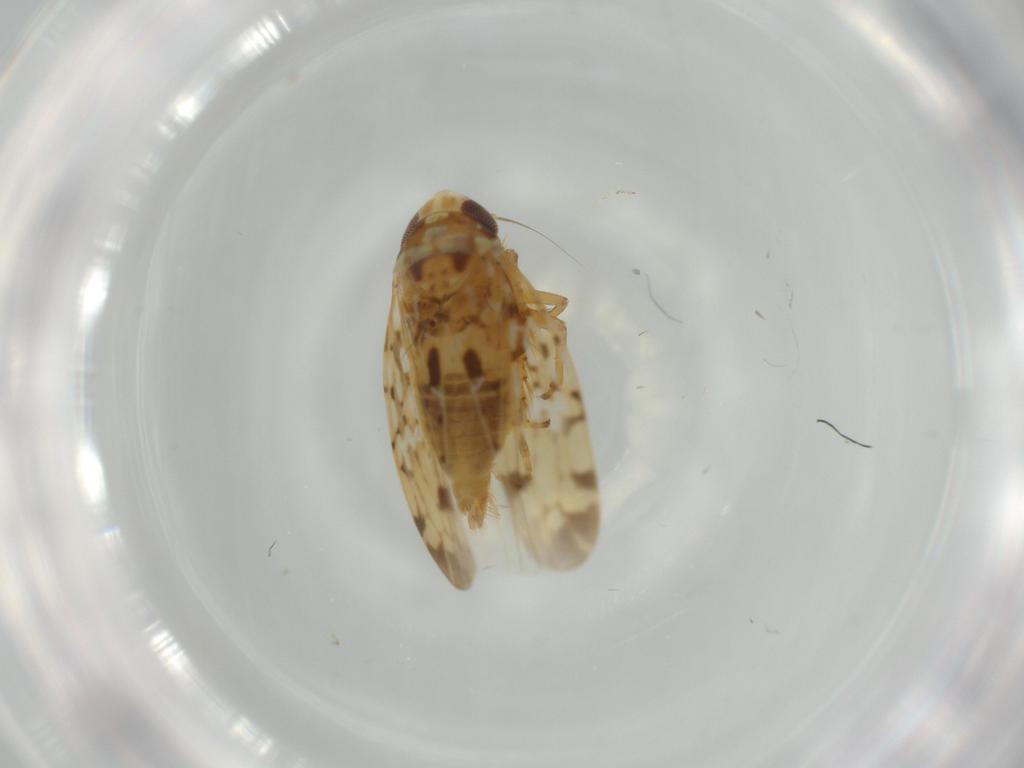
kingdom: Animalia
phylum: Arthropoda
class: Insecta
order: Hemiptera
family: Cicadellidae
